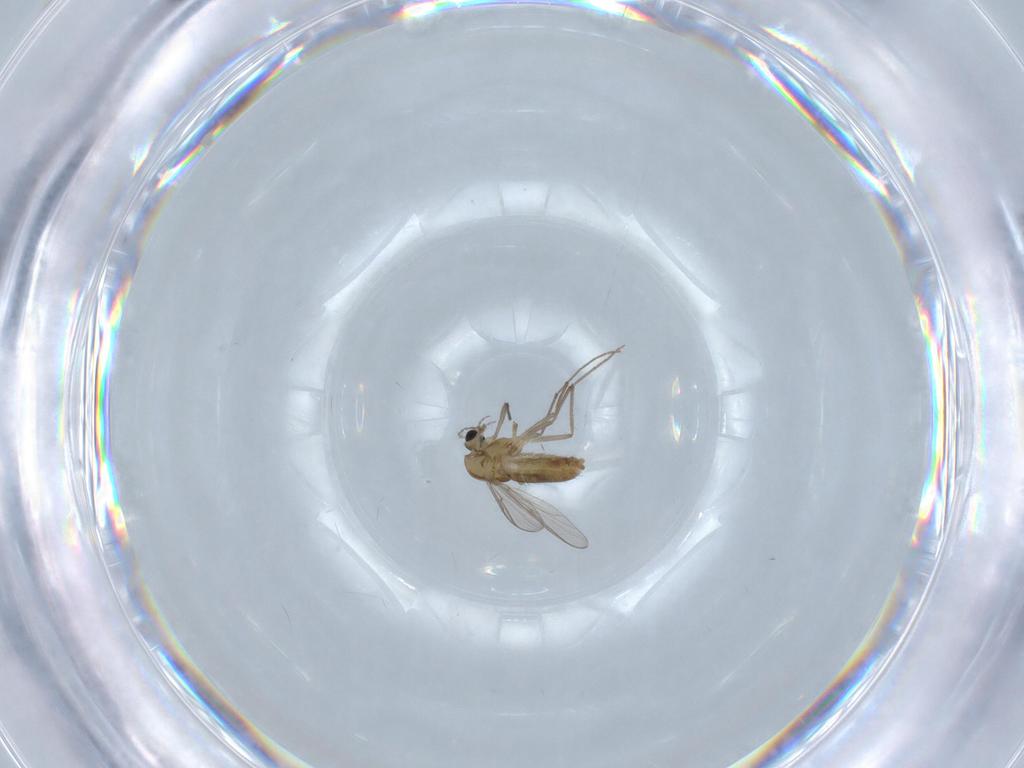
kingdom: Animalia
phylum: Arthropoda
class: Insecta
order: Diptera
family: Chironomidae
